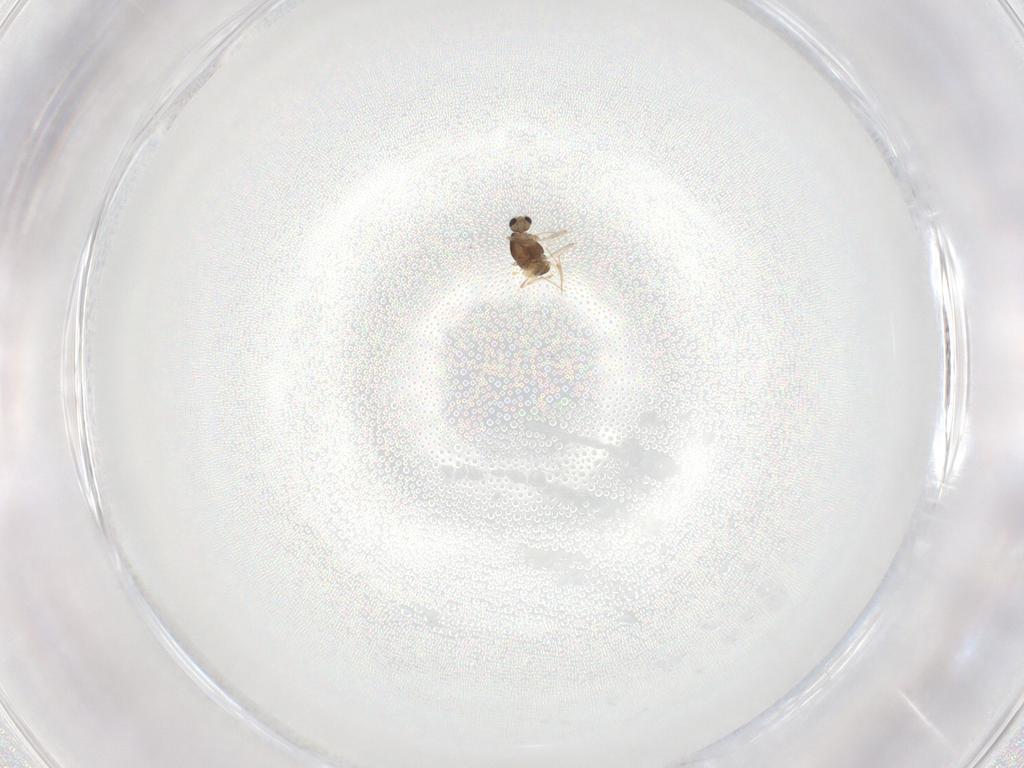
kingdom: Animalia
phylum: Arthropoda
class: Insecta
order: Diptera
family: Chironomidae
